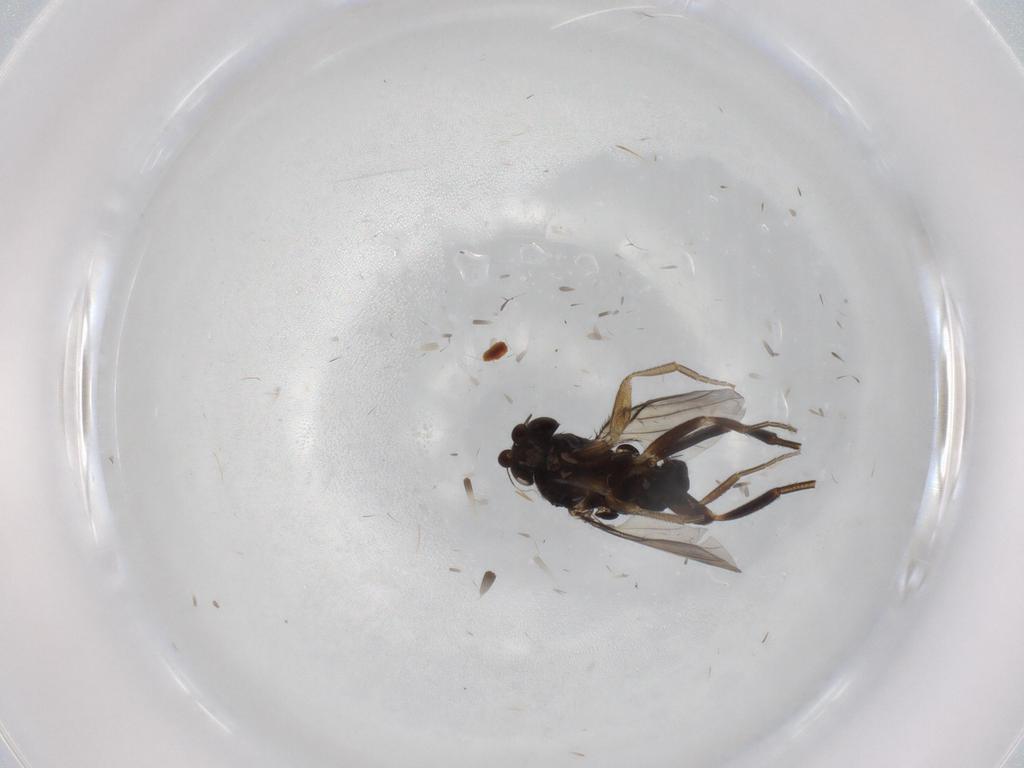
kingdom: Animalia
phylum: Arthropoda
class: Insecta
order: Diptera
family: Phoridae
